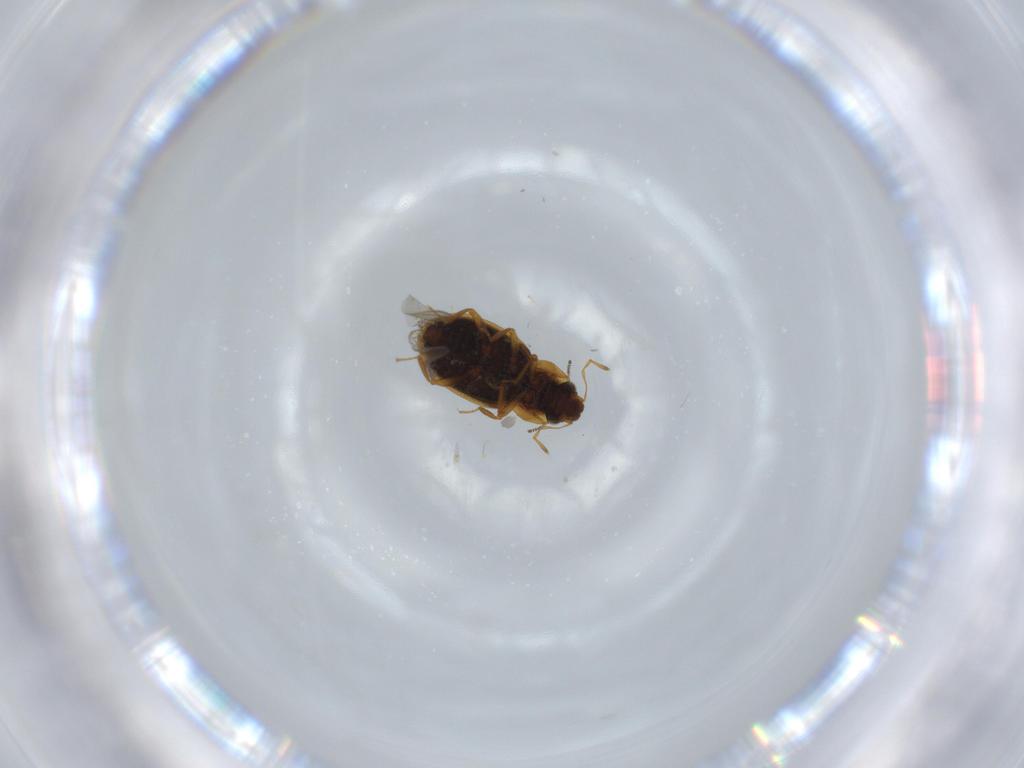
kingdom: Animalia
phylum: Arthropoda
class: Insecta
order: Coleoptera
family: Hydraenidae
